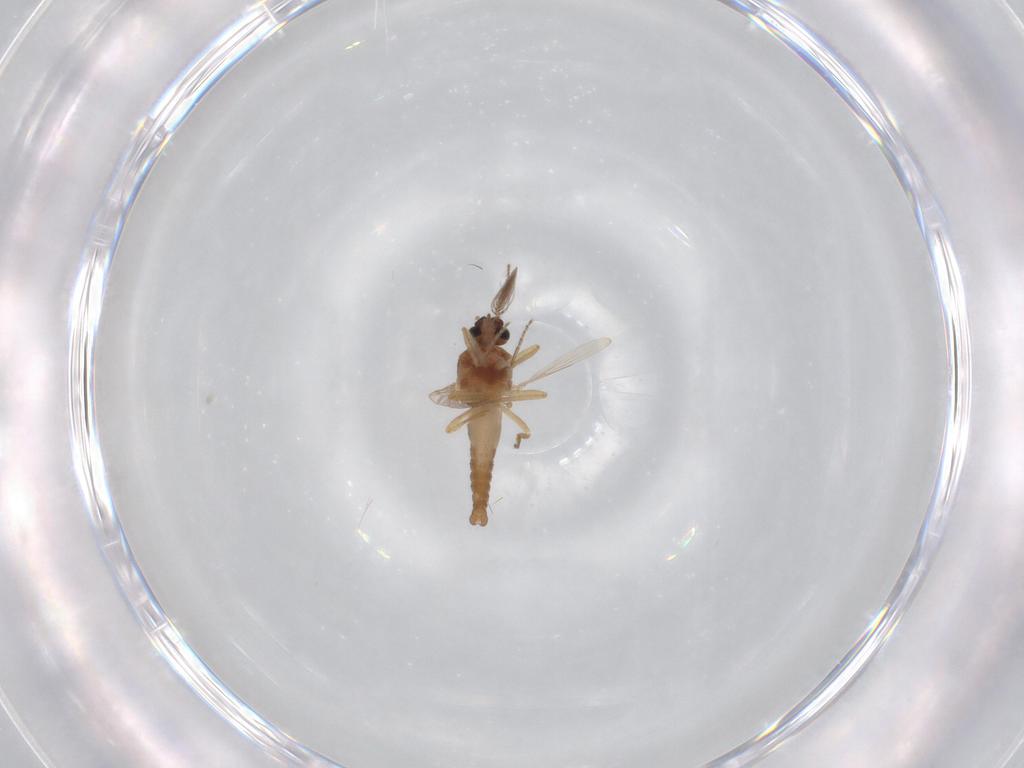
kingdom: Animalia
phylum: Arthropoda
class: Insecta
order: Diptera
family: Ceratopogonidae
